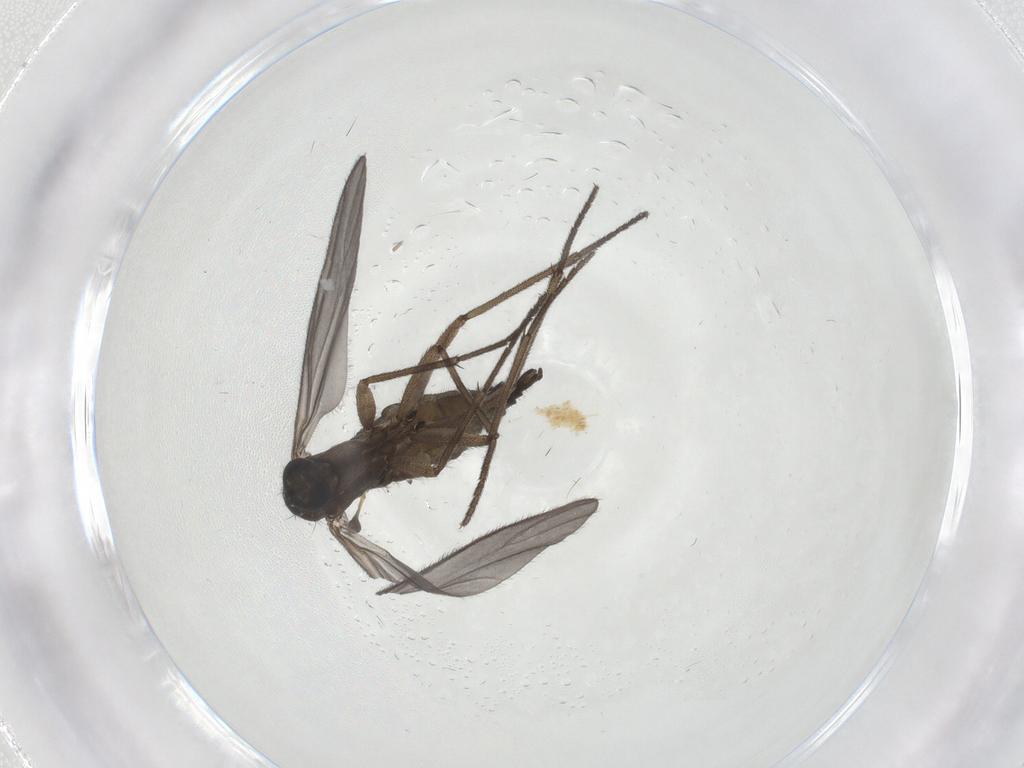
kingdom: Animalia
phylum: Arthropoda
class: Insecta
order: Diptera
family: Sciaridae
